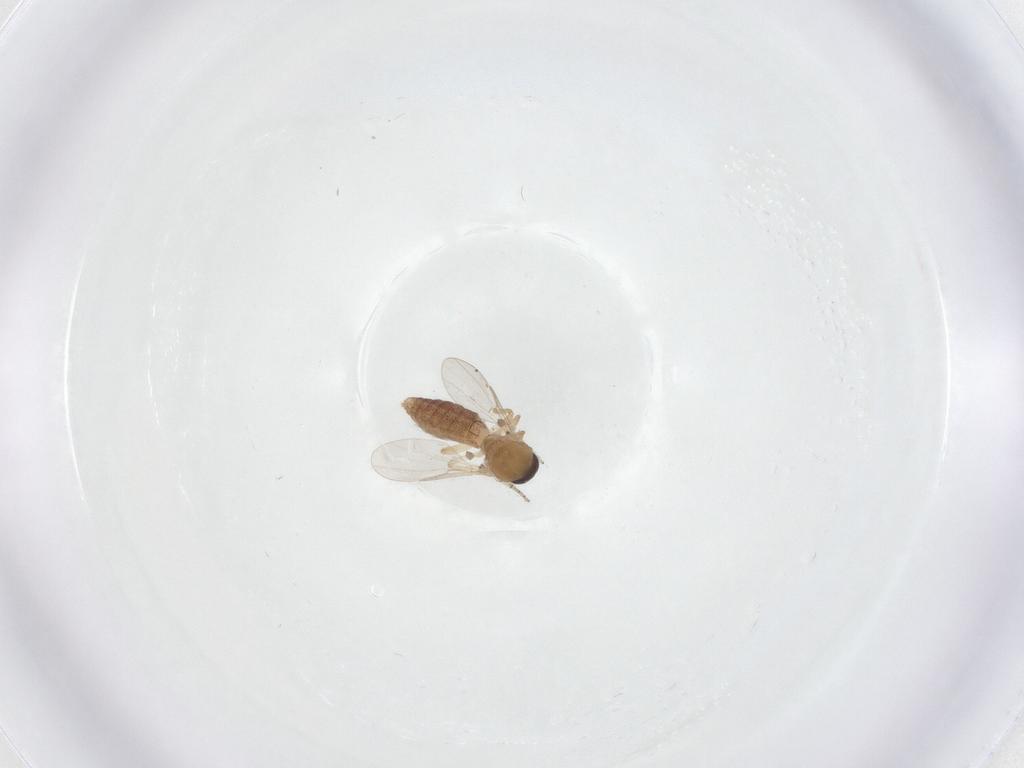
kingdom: Animalia
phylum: Arthropoda
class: Insecta
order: Diptera
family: Ceratopogonidae
